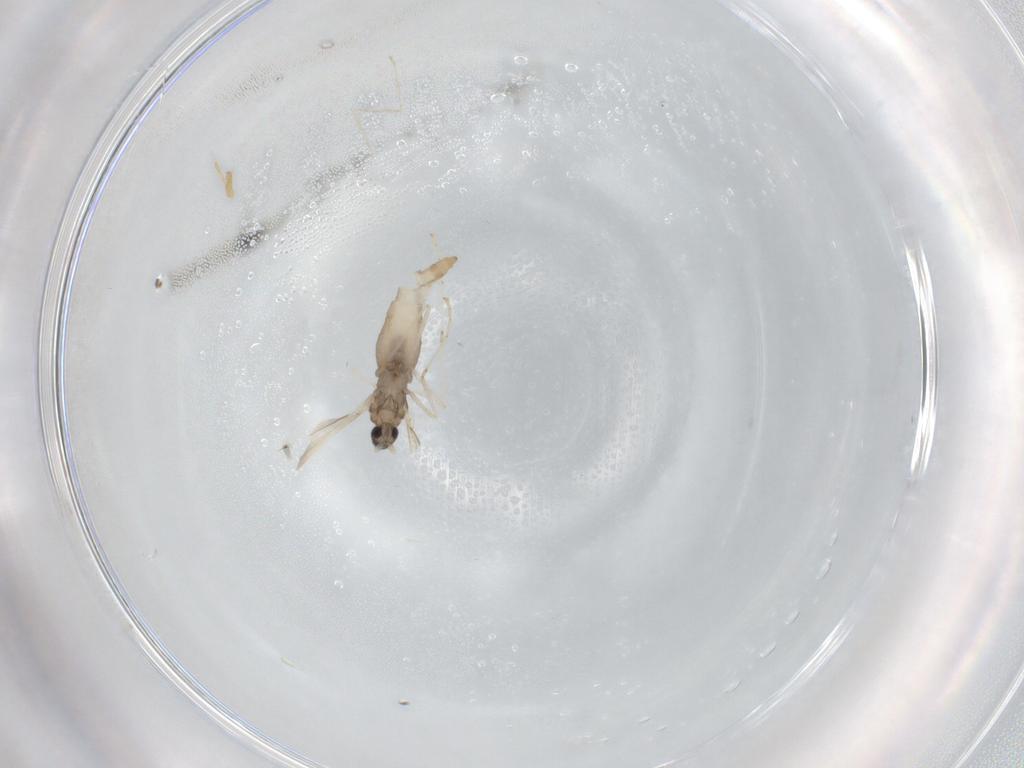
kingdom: Animalia
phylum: Arthropoda
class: Insecta
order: Diptera
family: Cecidomyiidae
